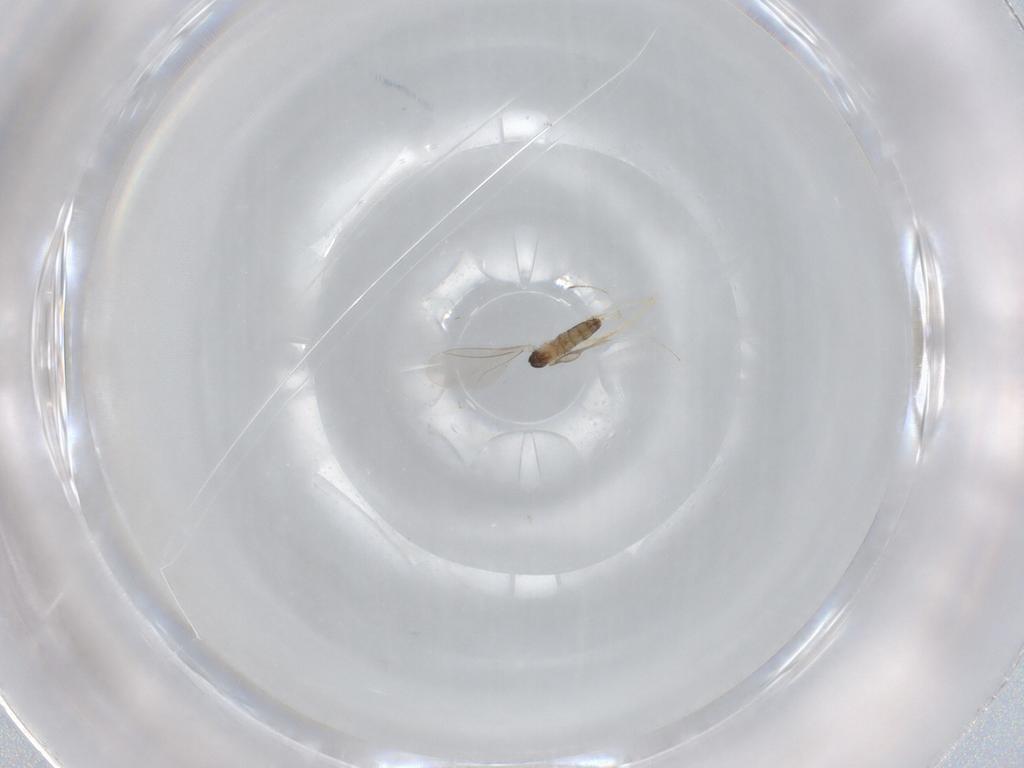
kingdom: Animalia
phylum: Arthropoda
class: Insecta
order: Diptera
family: Cecidomyiidae
